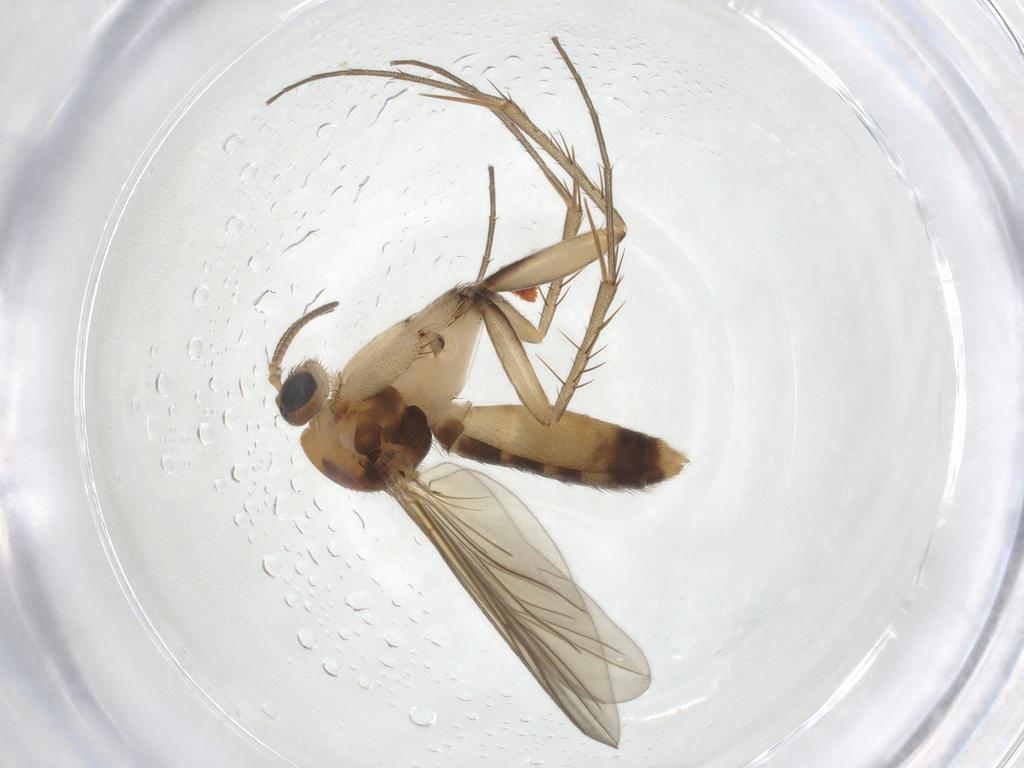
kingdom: Animalia
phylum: Arthropoda
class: Insecta
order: Diptera
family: Mycetophilidae
